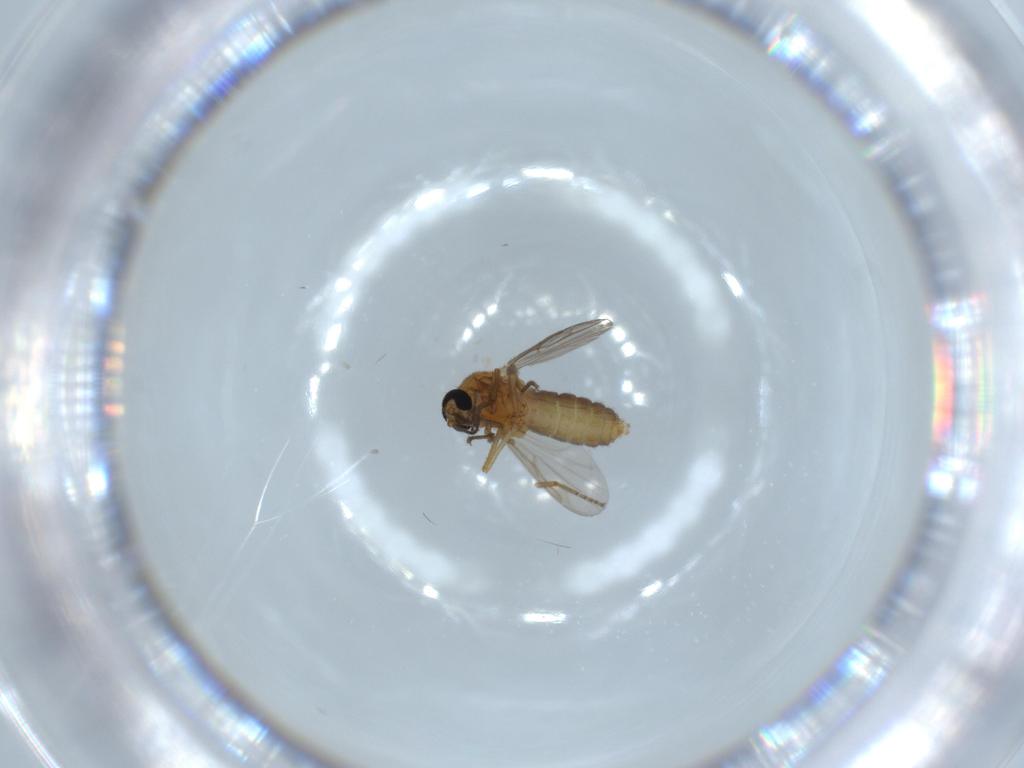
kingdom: Animalia
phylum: Arthropoda
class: Insecta
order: Diptera
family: Ceratopogonidae
